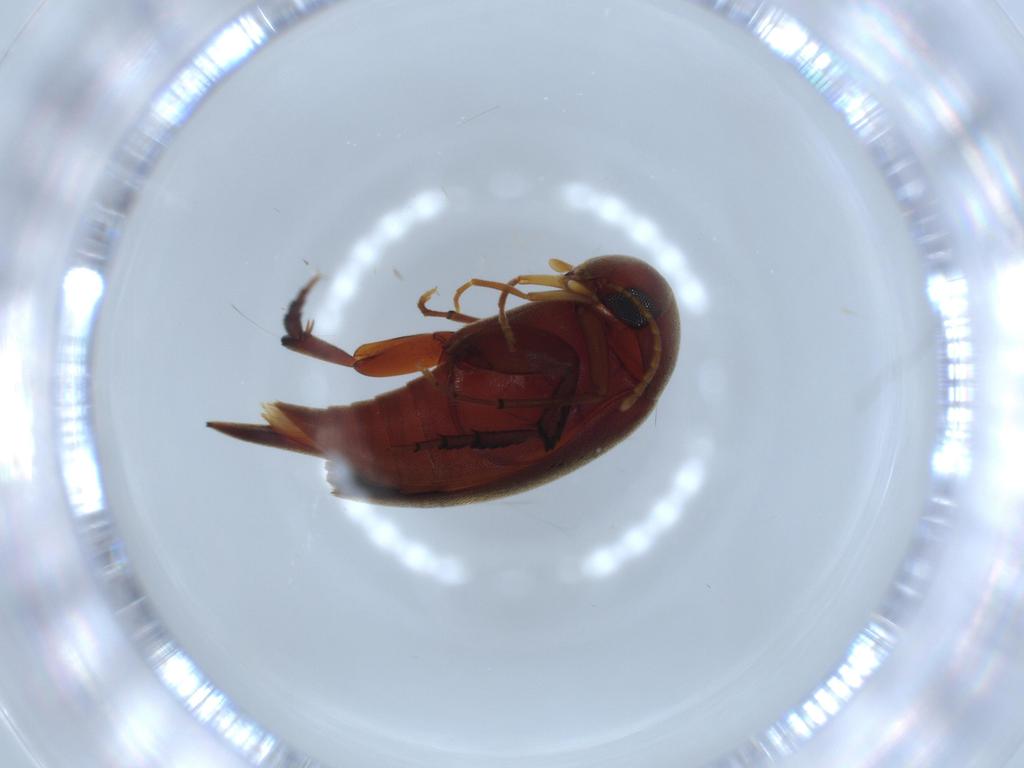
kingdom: Animalia
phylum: Arthropoda
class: Insecta
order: Coleoptera
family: Mordellidae
